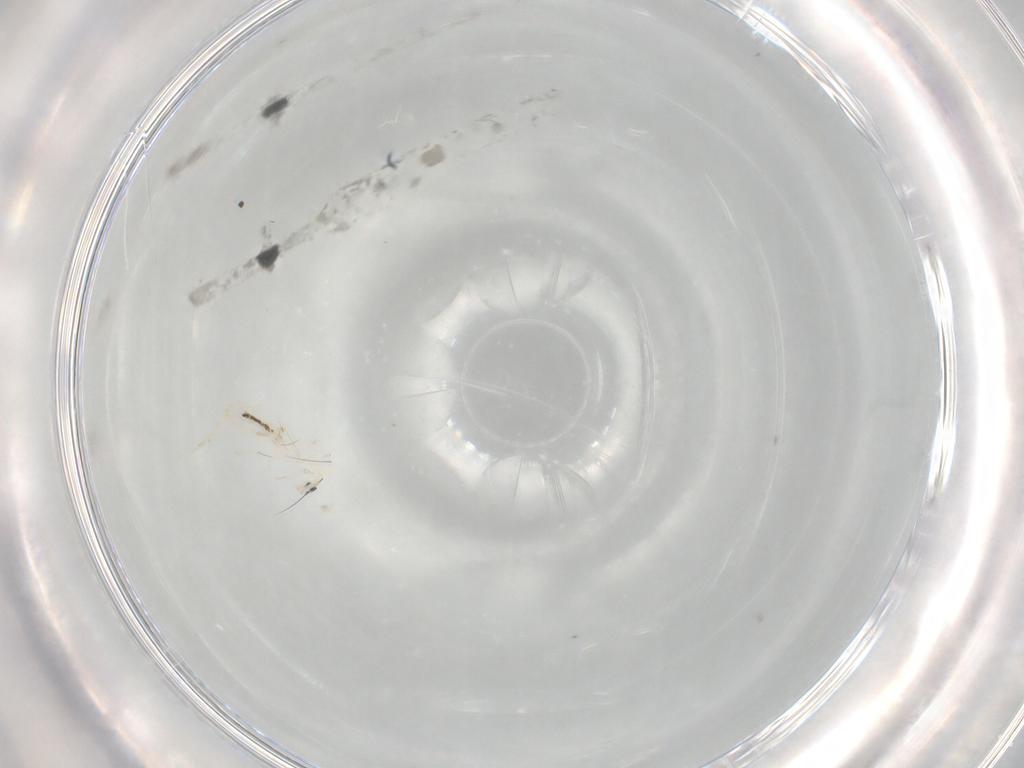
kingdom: Animalia
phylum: Arthropoda
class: Collembola
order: Entomobryomorpha
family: Entomobryidae
